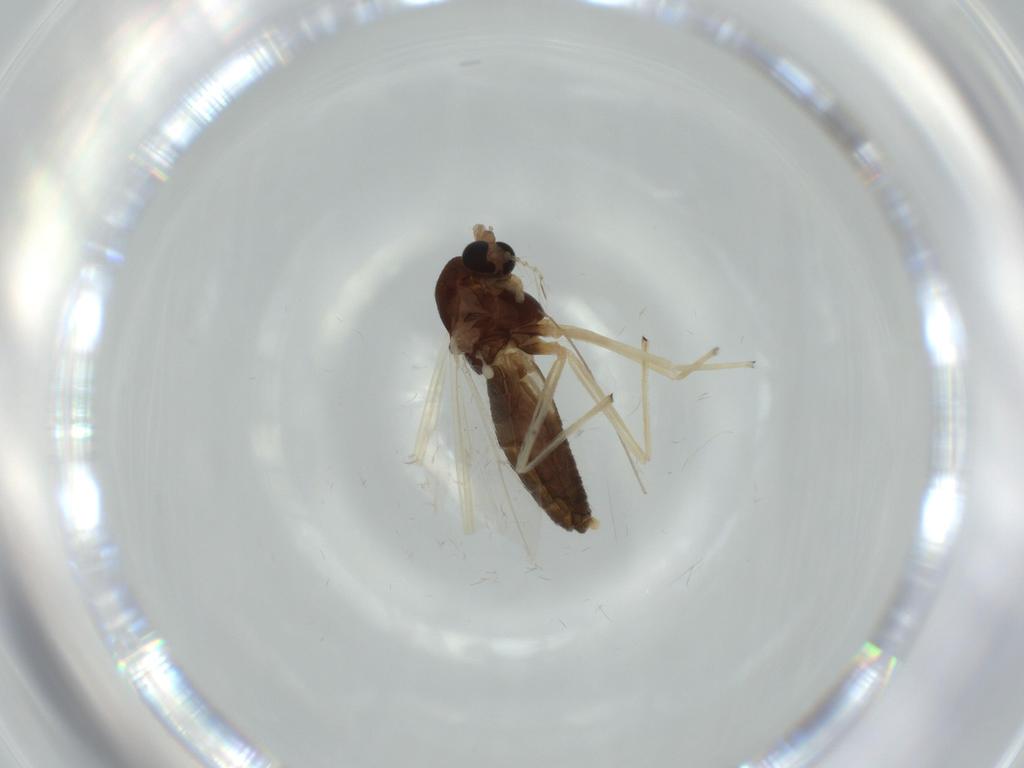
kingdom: Animalia
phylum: Arthropoda
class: Insecta
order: Diptera
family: Chironomidae
